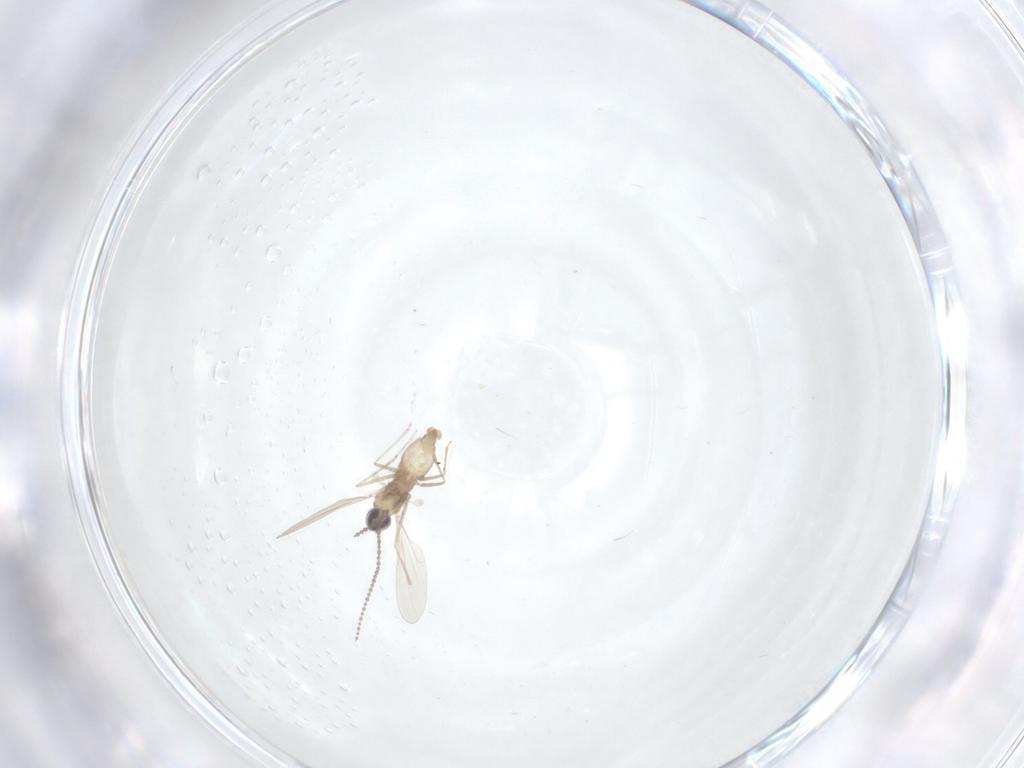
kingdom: Animalia
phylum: Arthropoda
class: Insecta
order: Diptera
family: Cecidomyiidae
